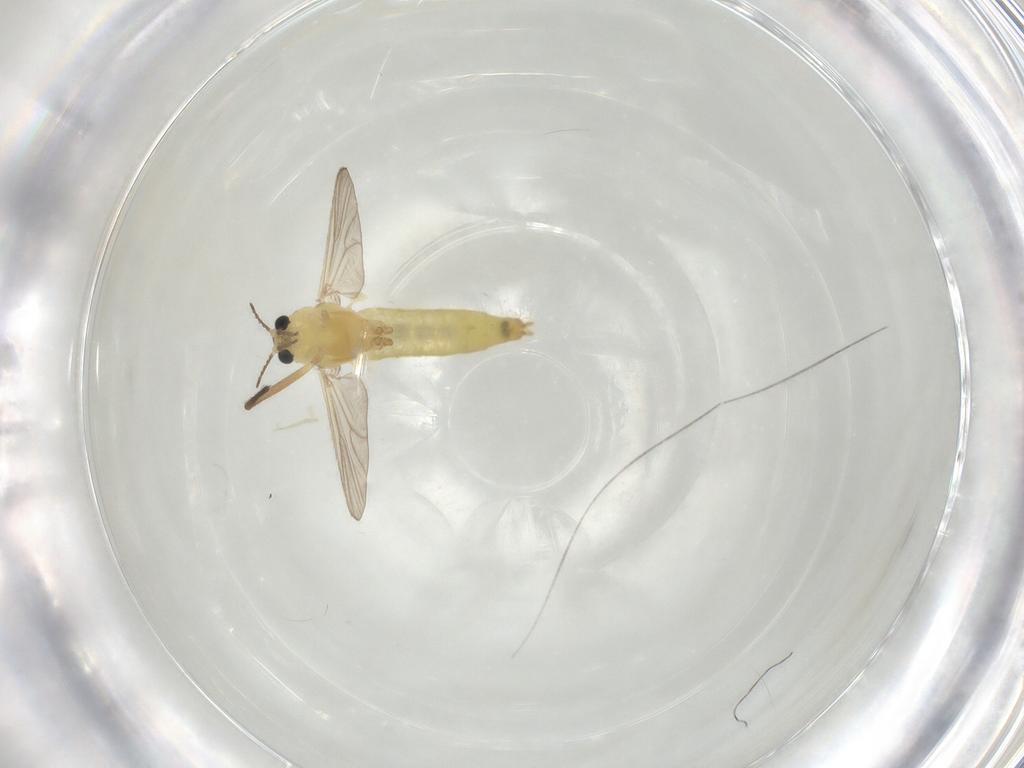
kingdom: Animalia
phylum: Arthropoda
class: Insecta
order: Diptera
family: Chironomidae
